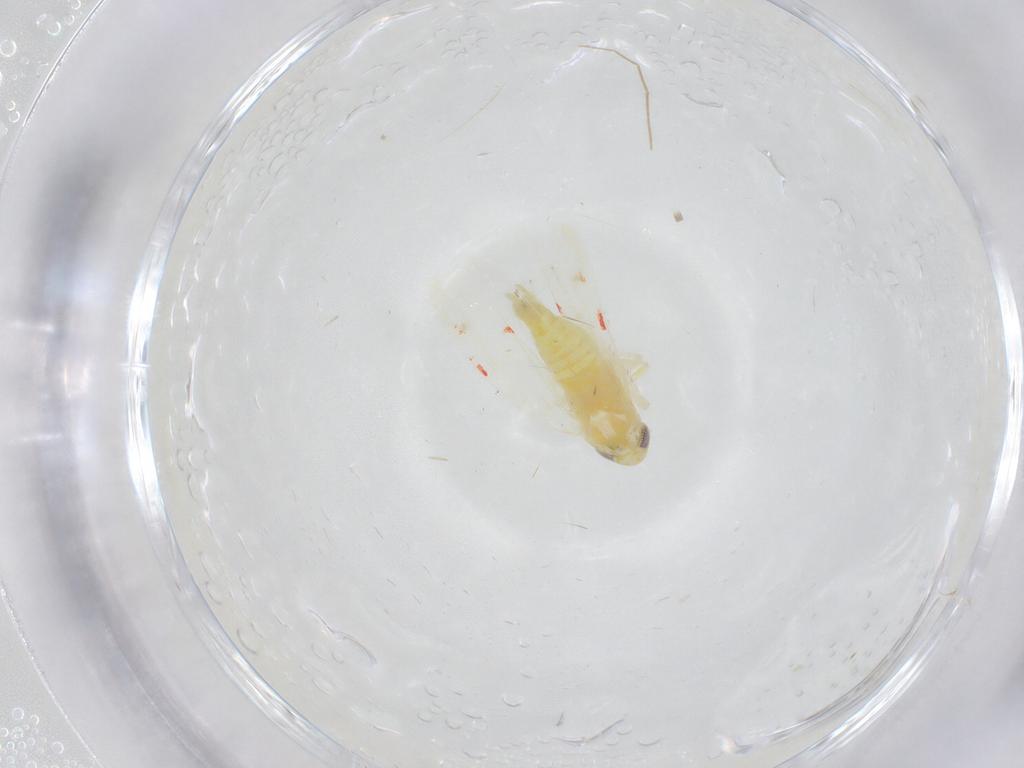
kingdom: Animalia
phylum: Arthropoda
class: Insecta
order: Hemiptera
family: Cicadellidae
